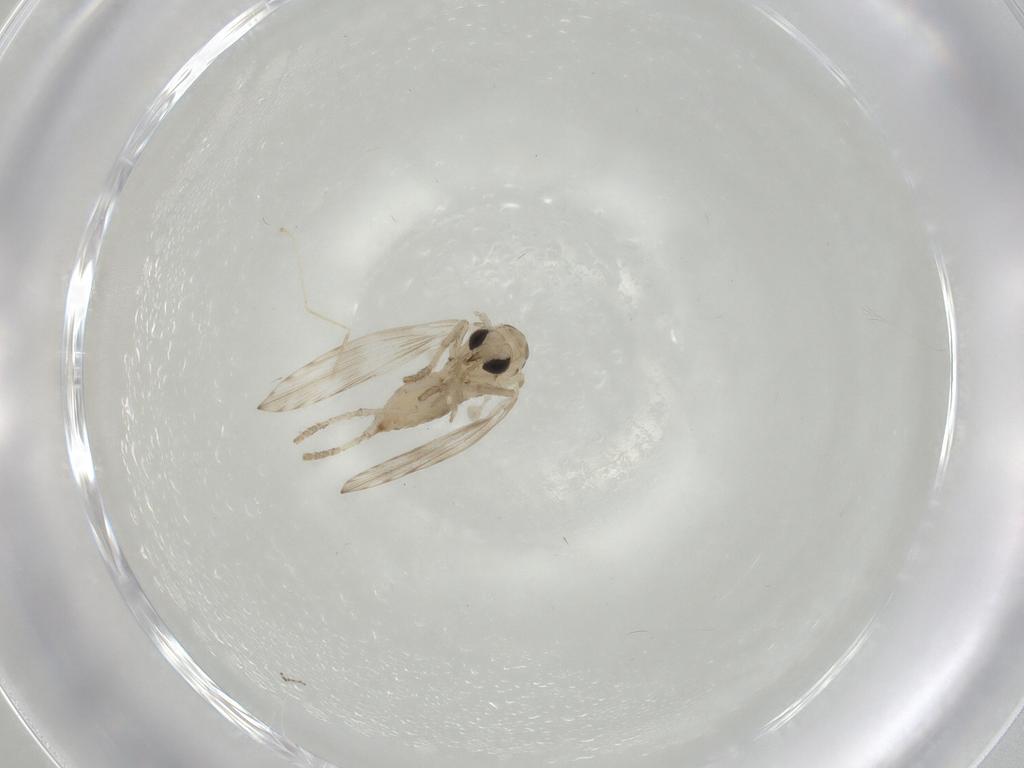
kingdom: Animalia
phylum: Arthropoda
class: Insecta
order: Diptera
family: Psychodidae
